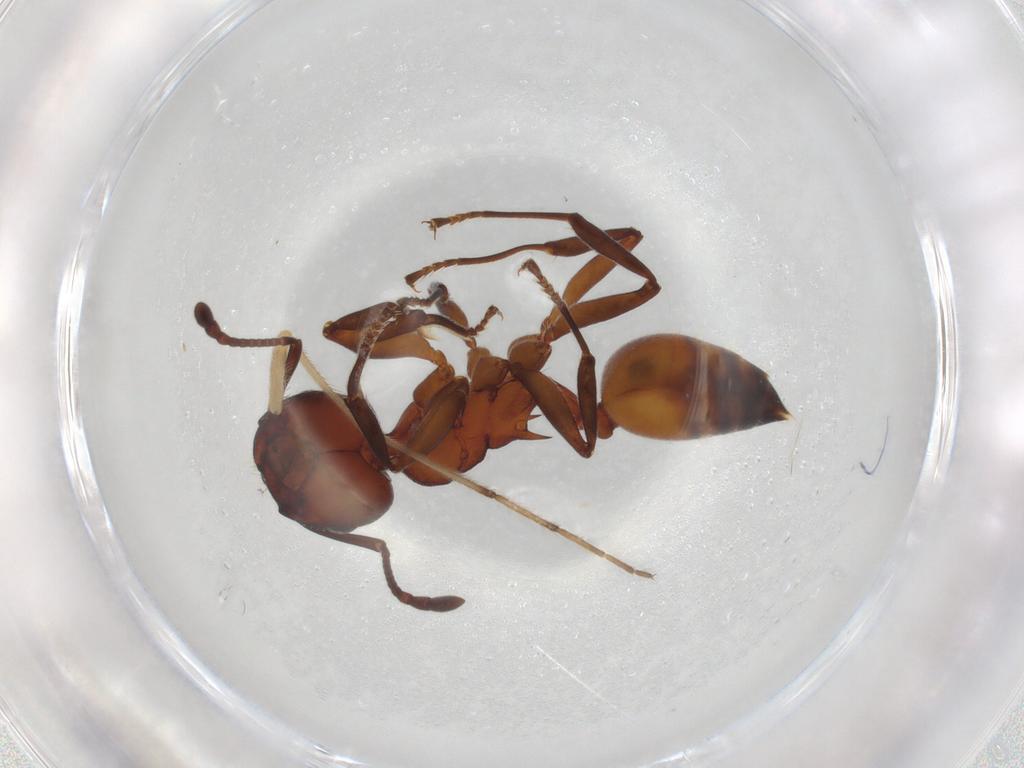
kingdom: Animalia
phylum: Arthropoda
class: Insecta
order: Hymenoptera
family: Formicidae
